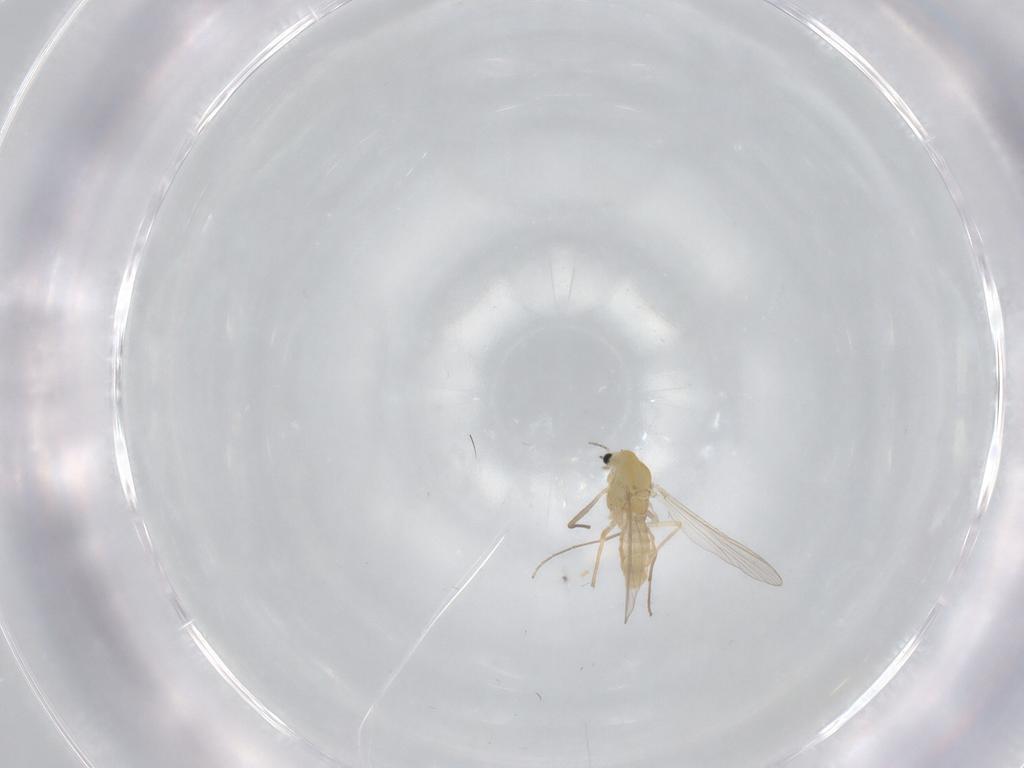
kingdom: Animalia
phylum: Arthropoda
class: Insecta
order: Diptera
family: Chironomidae
